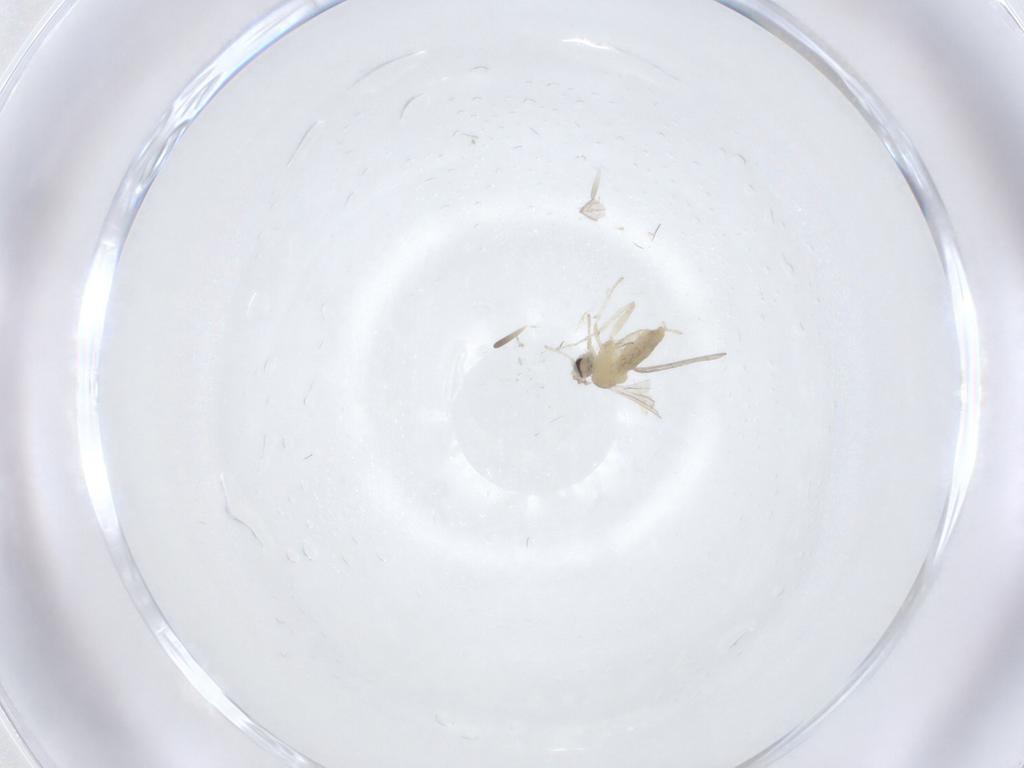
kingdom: Animalia
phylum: Arthropoda
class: Insecta
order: Diptera
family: Cecidomyiidae
